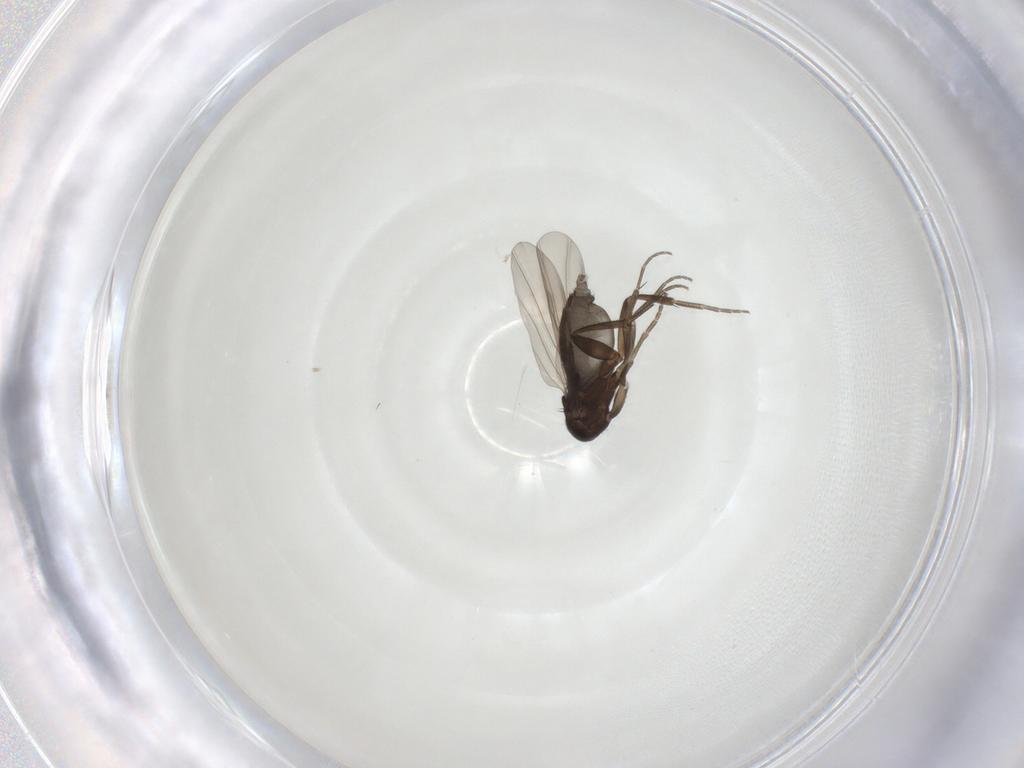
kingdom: Animalia
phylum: Arthropoda
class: Insecta
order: Diptera
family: Phoridae
